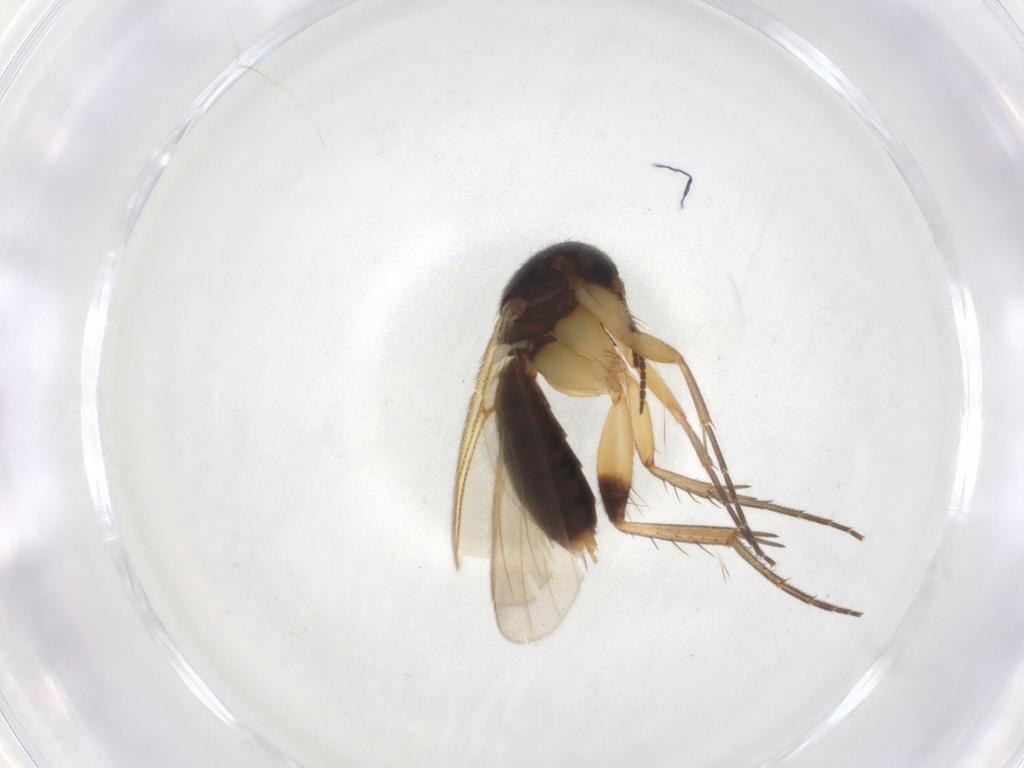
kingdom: Animalia
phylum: Arthropoda
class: Insecta
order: Diptera
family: Mycetophilidae
